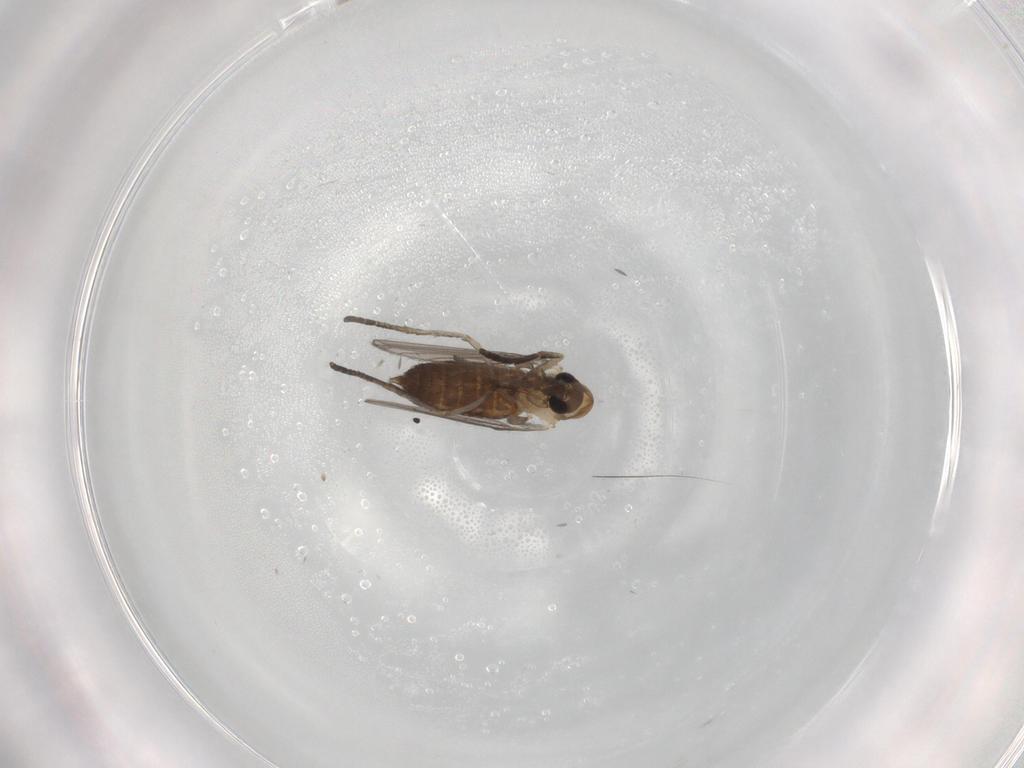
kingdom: Animalia
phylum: Arthropoda
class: Insecta
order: Diptera
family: Psychodidae
